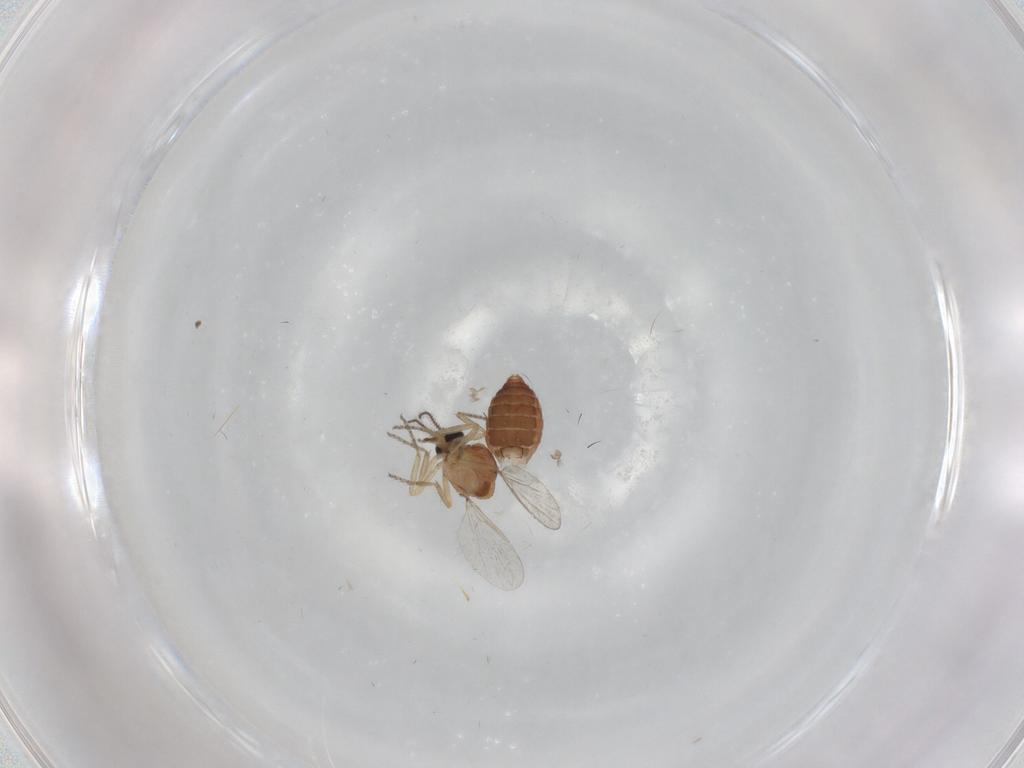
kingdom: Animalia
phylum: Arthropoda
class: Insecta
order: Diptera
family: Ceratopogonidae
